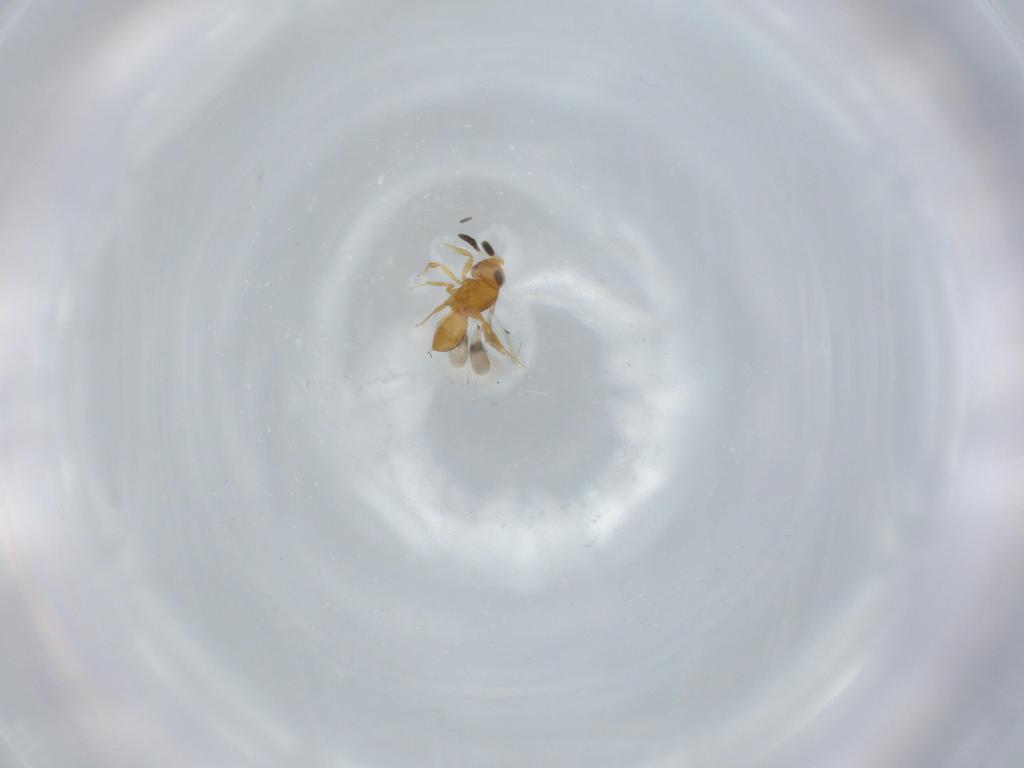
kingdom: Animalia
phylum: Arthropoda
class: Insecta
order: Hymenoptera
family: Scelionidae
